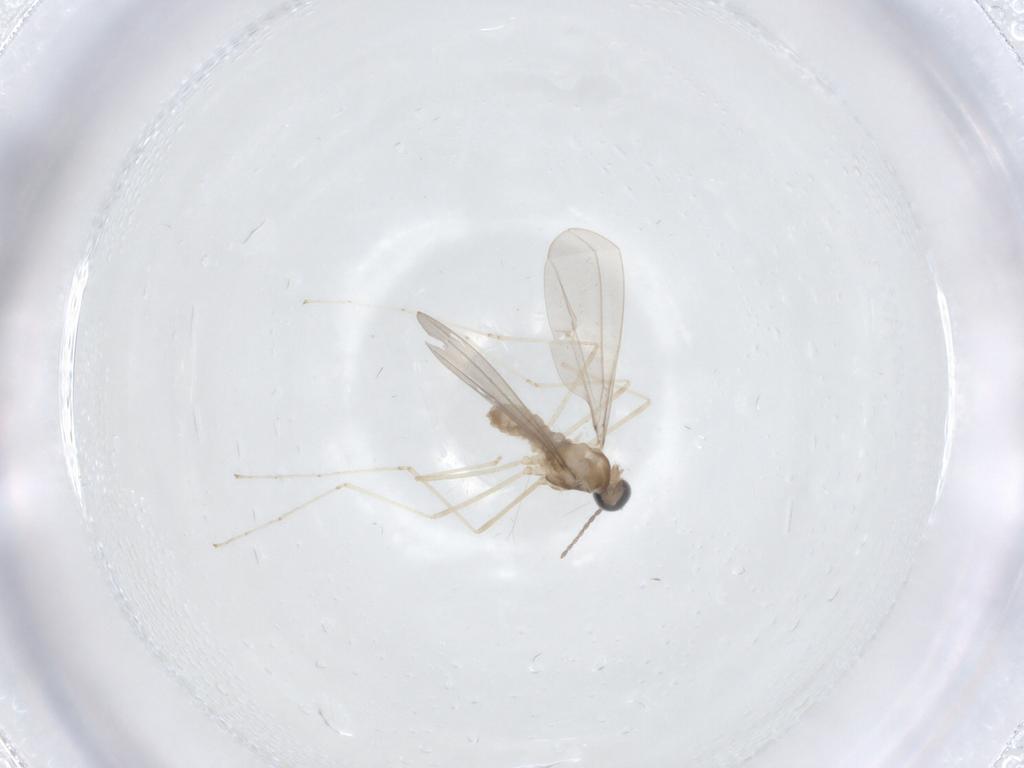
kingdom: Animalia
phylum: Arthropoda
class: Insecta
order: Diptera
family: Cecidomyiidae
